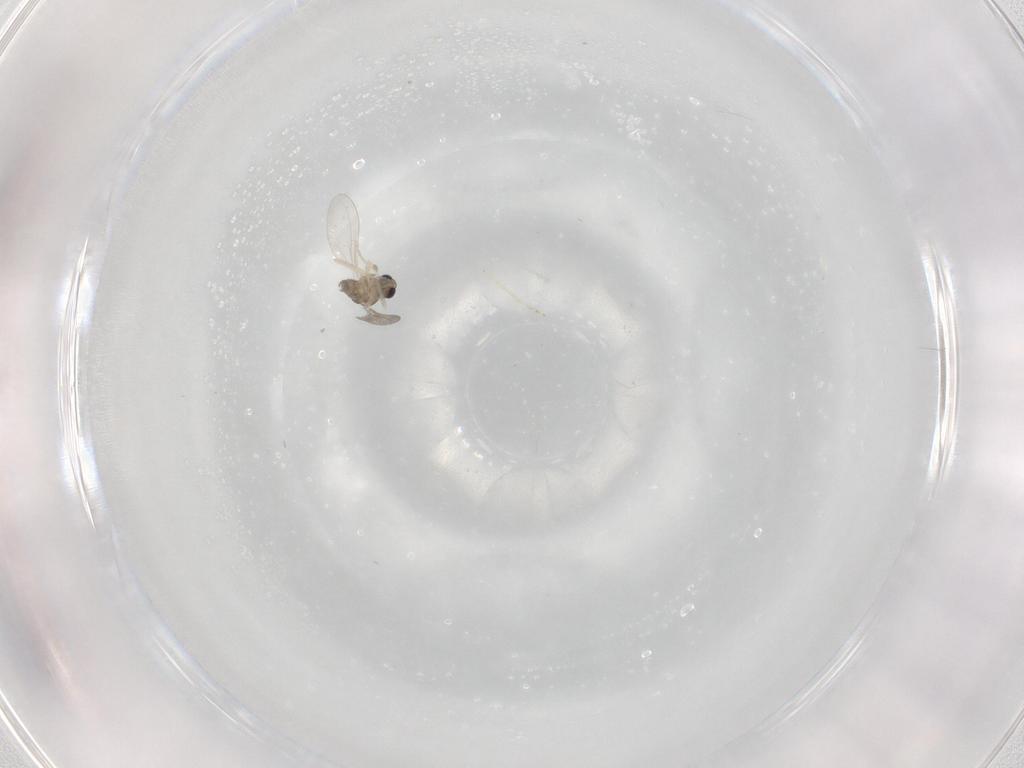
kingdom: Animalia
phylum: Arthropoda
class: Insecta
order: Diptera
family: Cecidomyiidae
